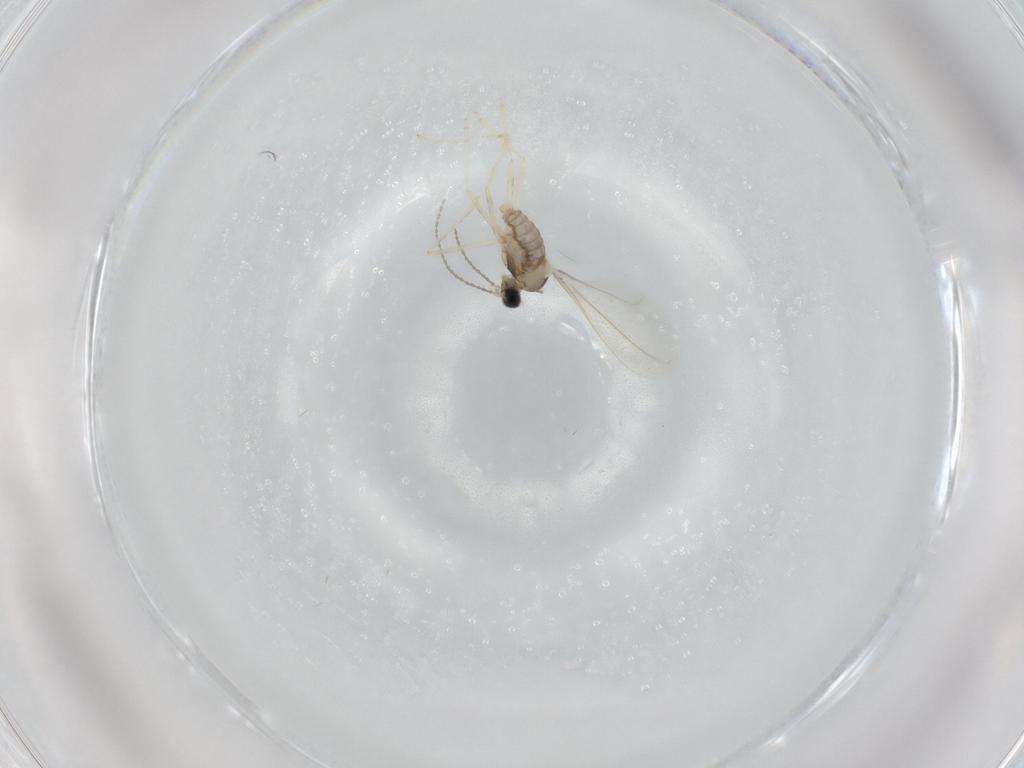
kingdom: Animalia
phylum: Arthropoda
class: Insecta
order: Diptera
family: Cecidomyiidae
